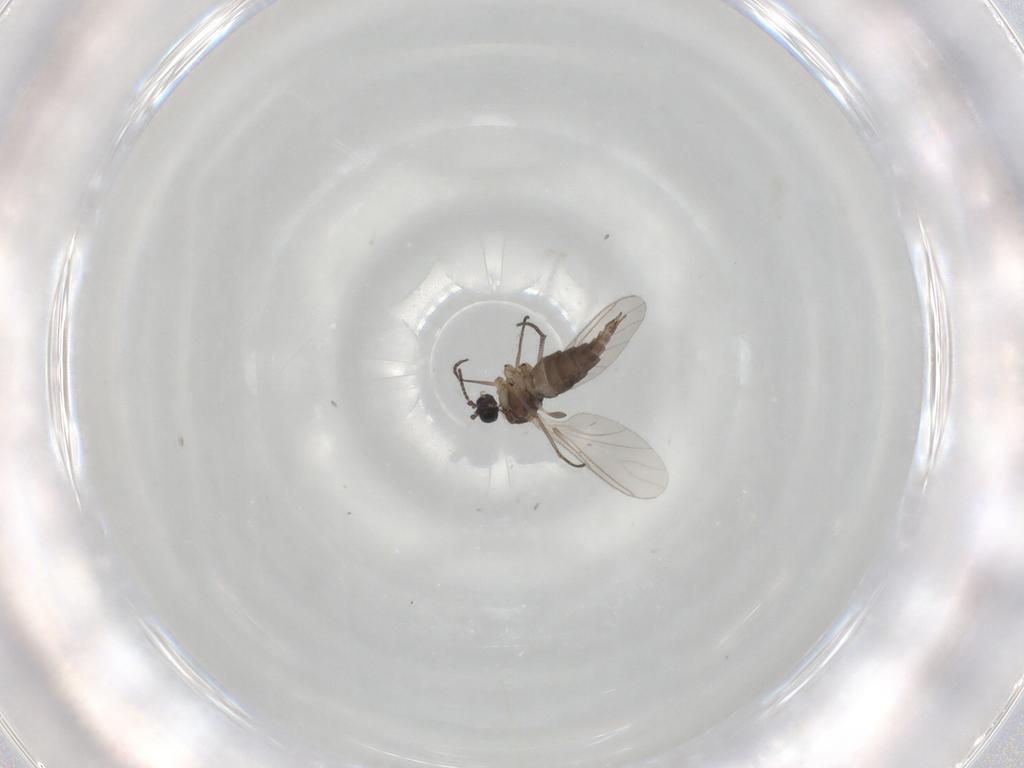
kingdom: Animalia
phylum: Arthropoda
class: Insecta
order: Diptera
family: Sciaridae
